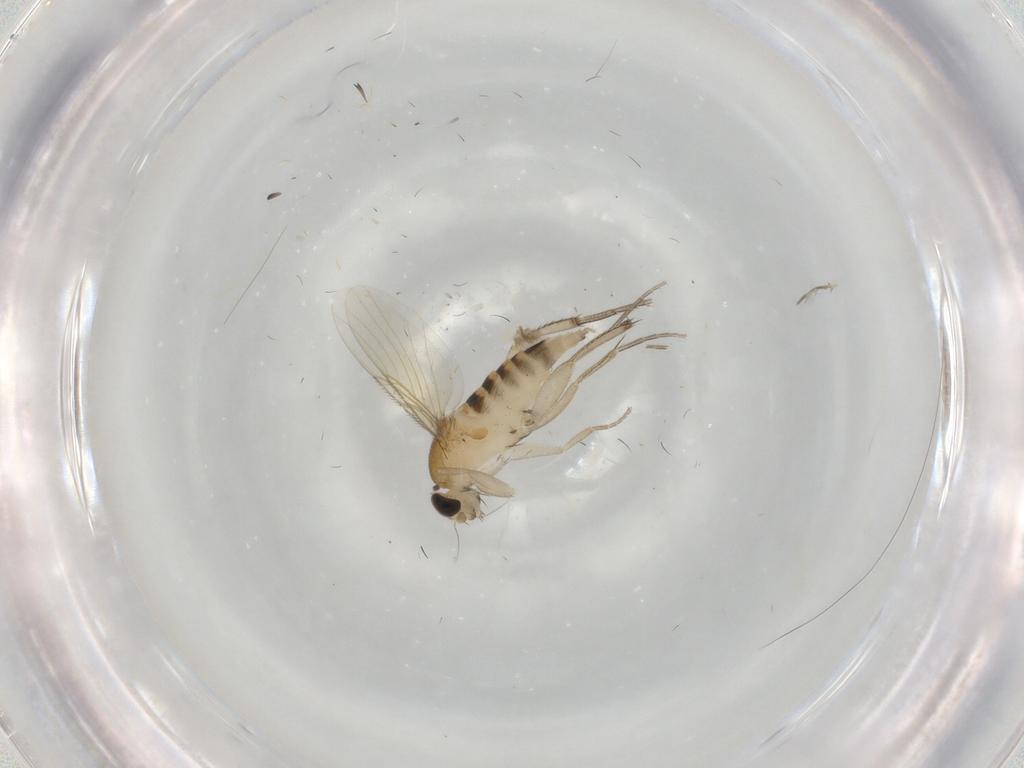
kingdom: Animalia
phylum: Arthropoda
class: Insecta
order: Diptera
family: Phoridae
